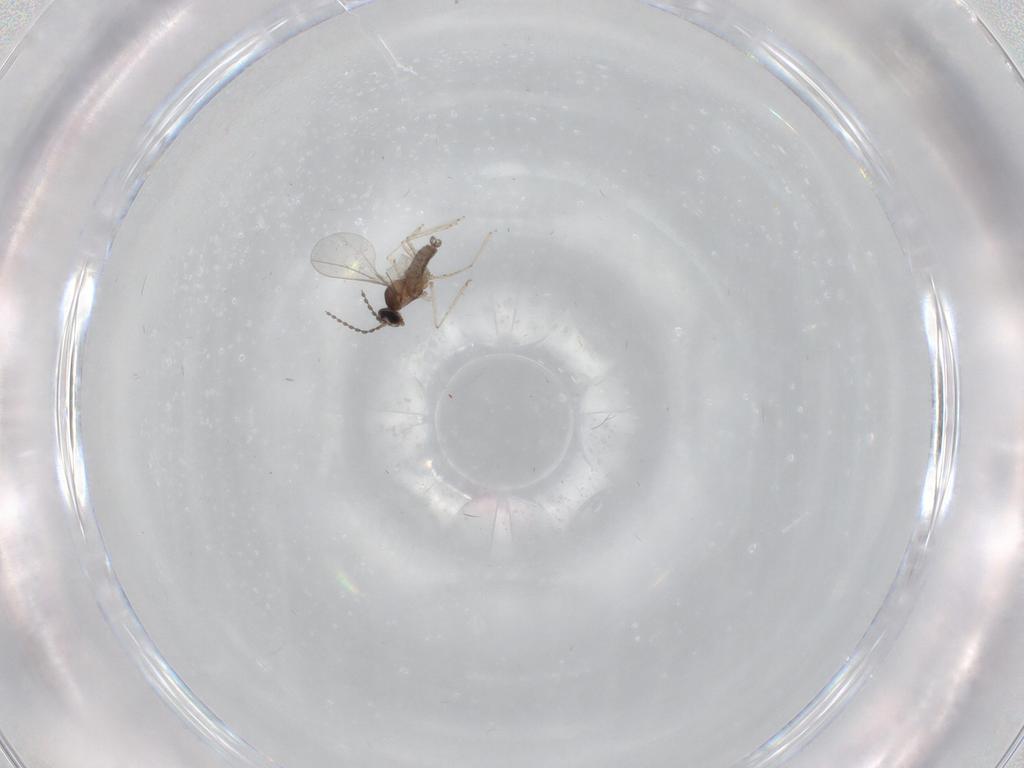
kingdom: Animalia
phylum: Arthropoda
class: Insecta
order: Diptera
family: Cecidomyiidae
